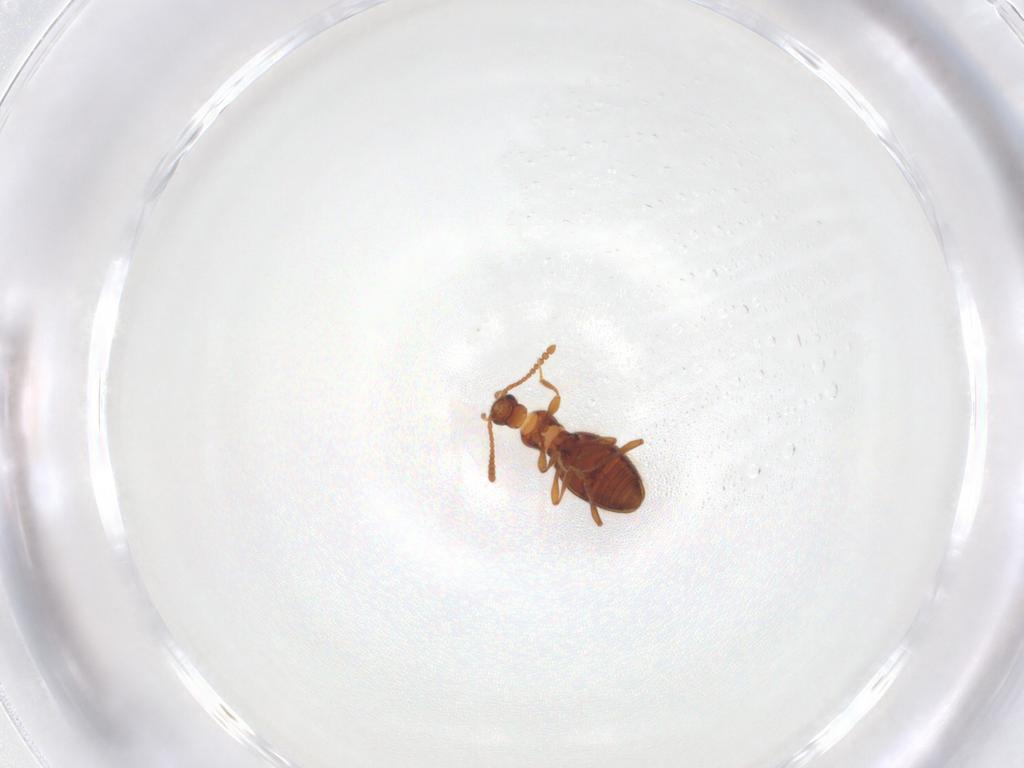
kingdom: Animalia
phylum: Arthropoda
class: Insecta
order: Coleoptera
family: Staphylinidae
